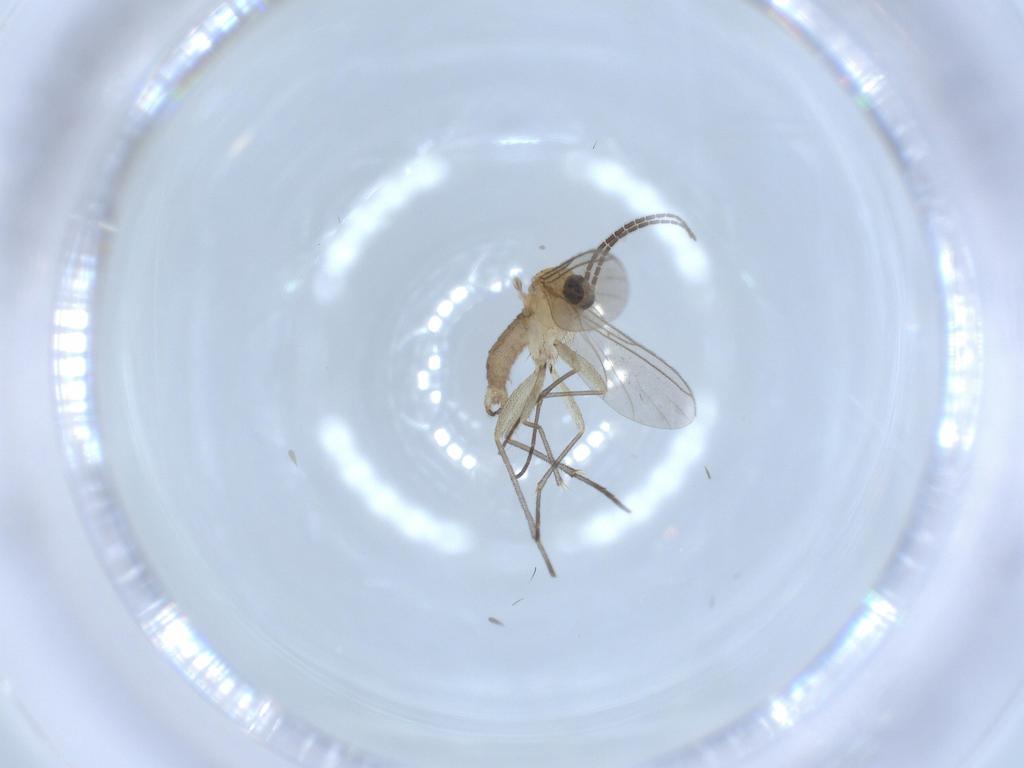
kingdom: Animalia
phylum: Arthropoda
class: Insecta
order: Diptera
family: Sciaridae
